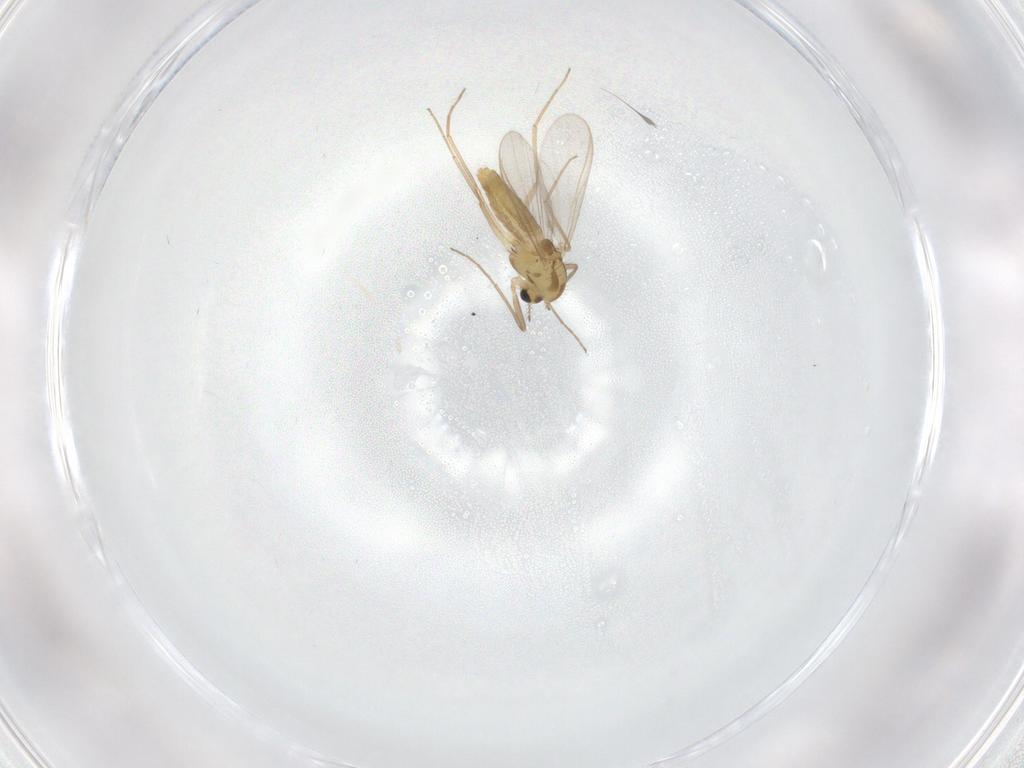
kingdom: Animalia
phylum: Arthropoda
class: Insecta
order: Diptera
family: Chironomidae
